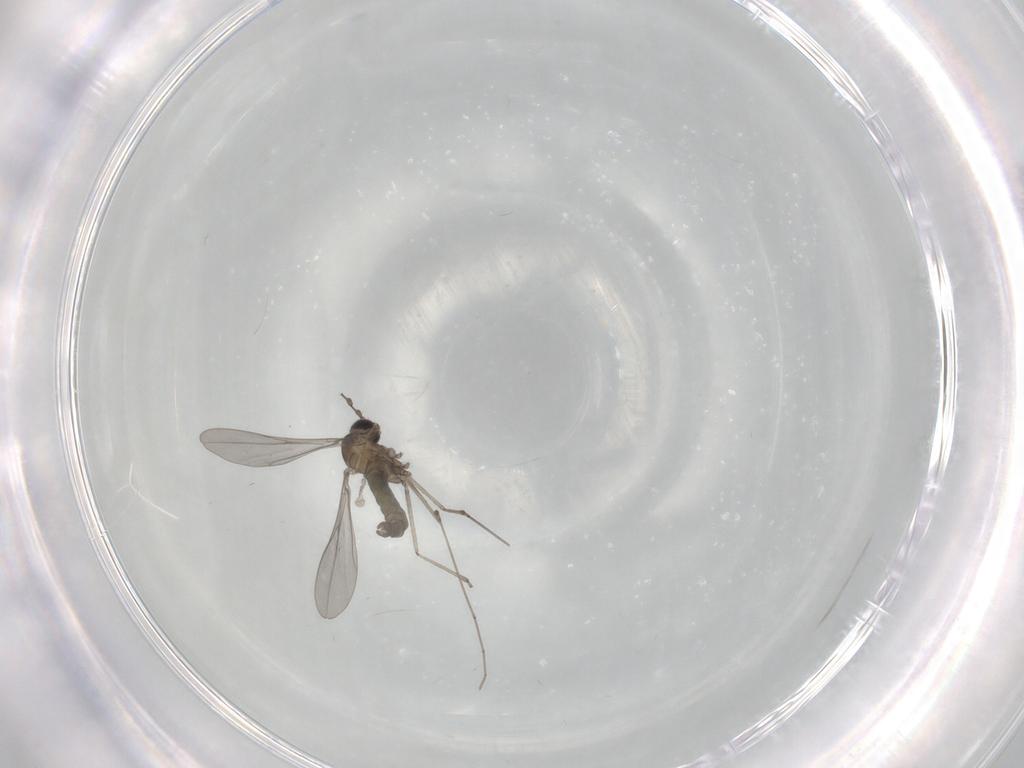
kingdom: Animalia
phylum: Arthropoda
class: Insecta
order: Diptera
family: Cecidomyiidae
